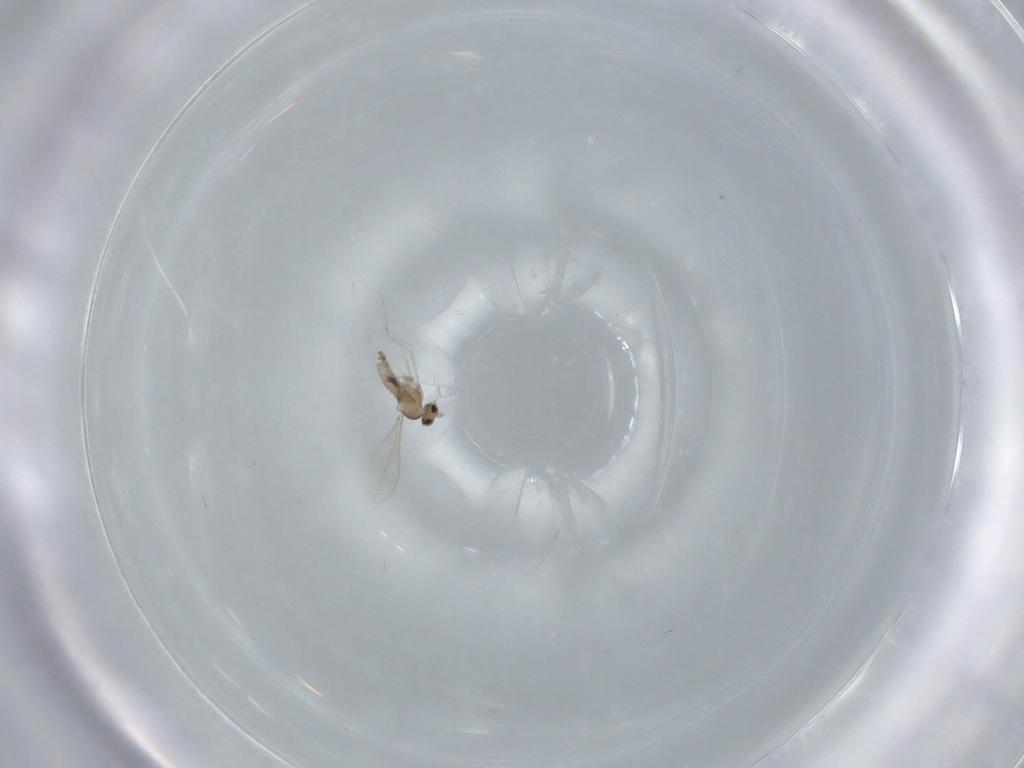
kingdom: Animalia
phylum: Arthropoda
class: Insecta
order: Diptera
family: Cecidomyiidae
